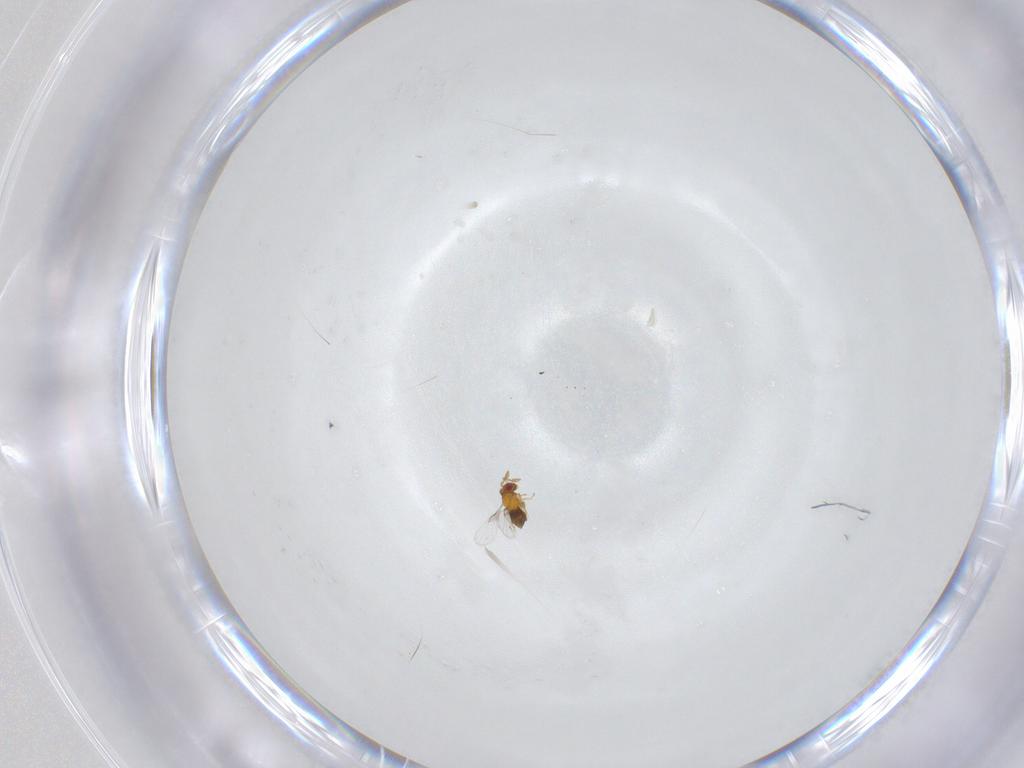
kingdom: Animalia
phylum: Arthropoda
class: Insecta
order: Hymenoptera
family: Trichogrammatidae
